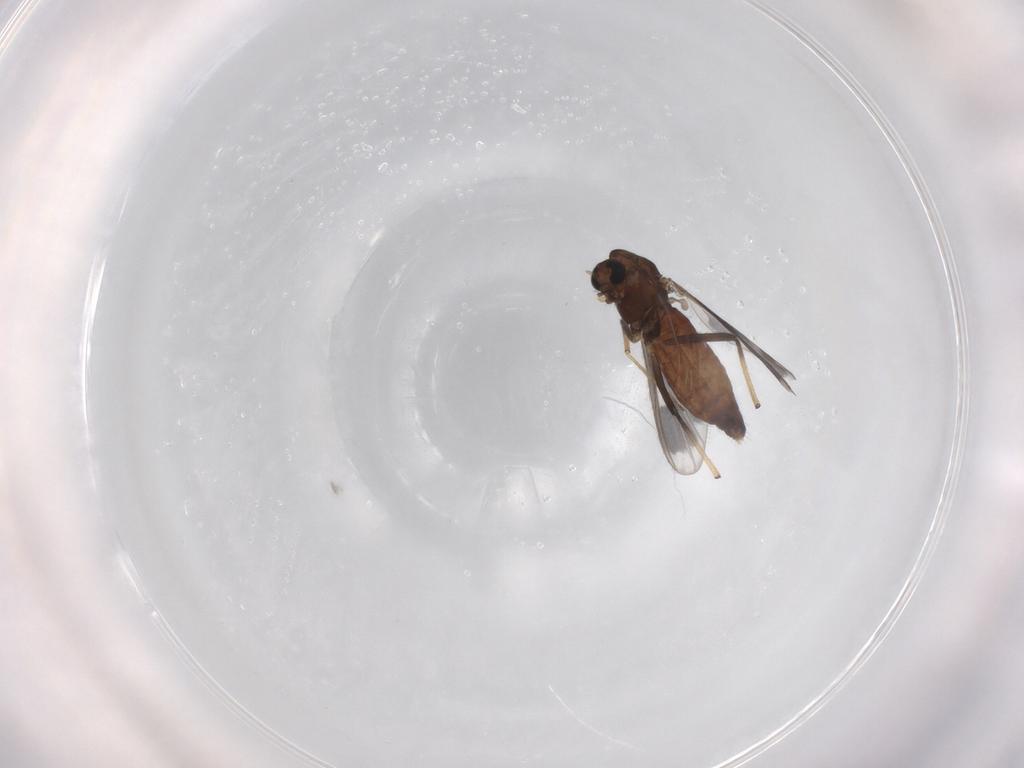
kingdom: Animalia
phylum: Arthropoda
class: Insecta
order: Diptera
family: Chironomidae
